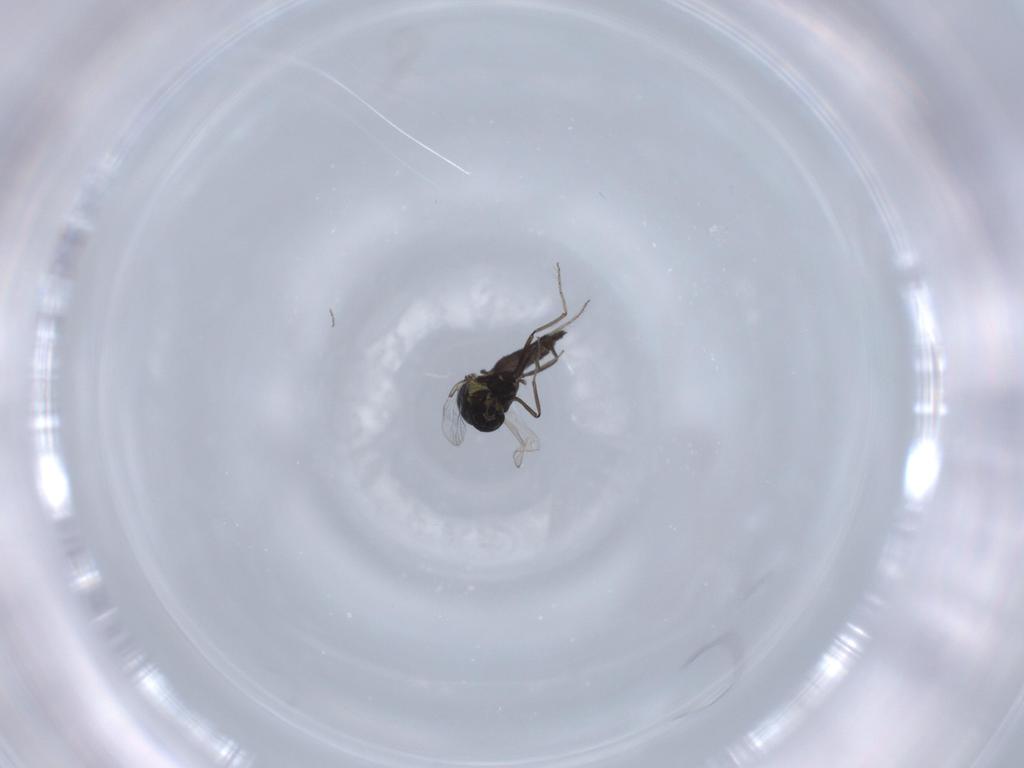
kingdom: Animalia
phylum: Arthropoda
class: Insecta
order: Diptera
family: Ceratopogonidae
